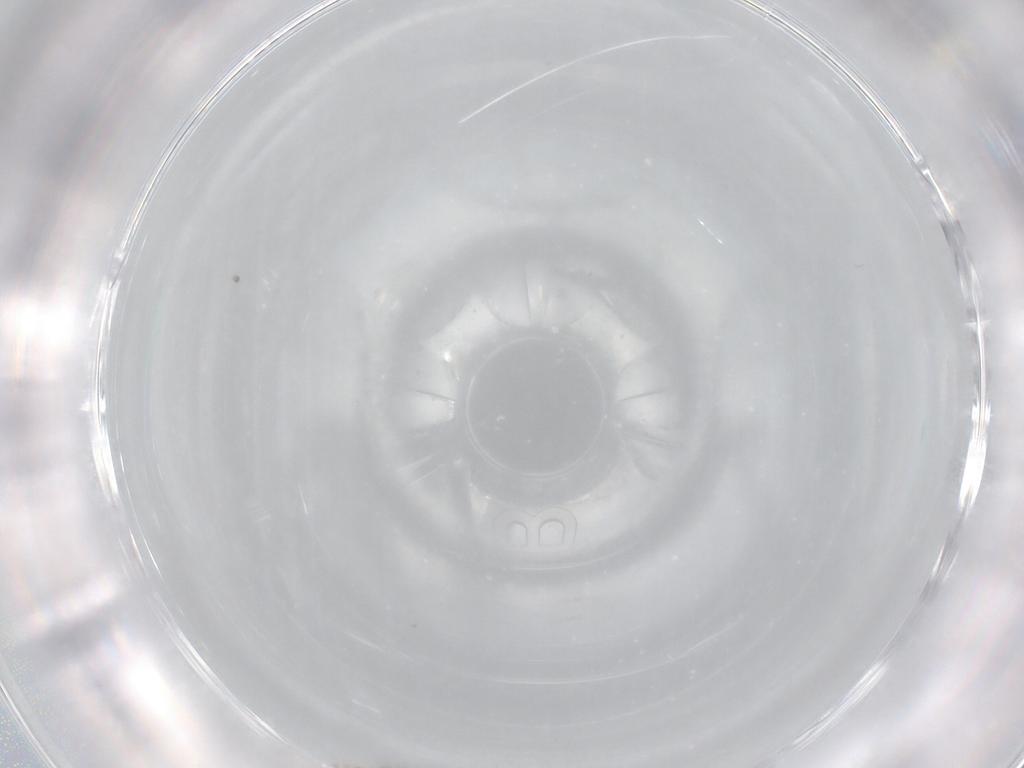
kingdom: Animalia
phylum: Arthropoda
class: Insecta
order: Diptera
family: Cecidomyiidae
